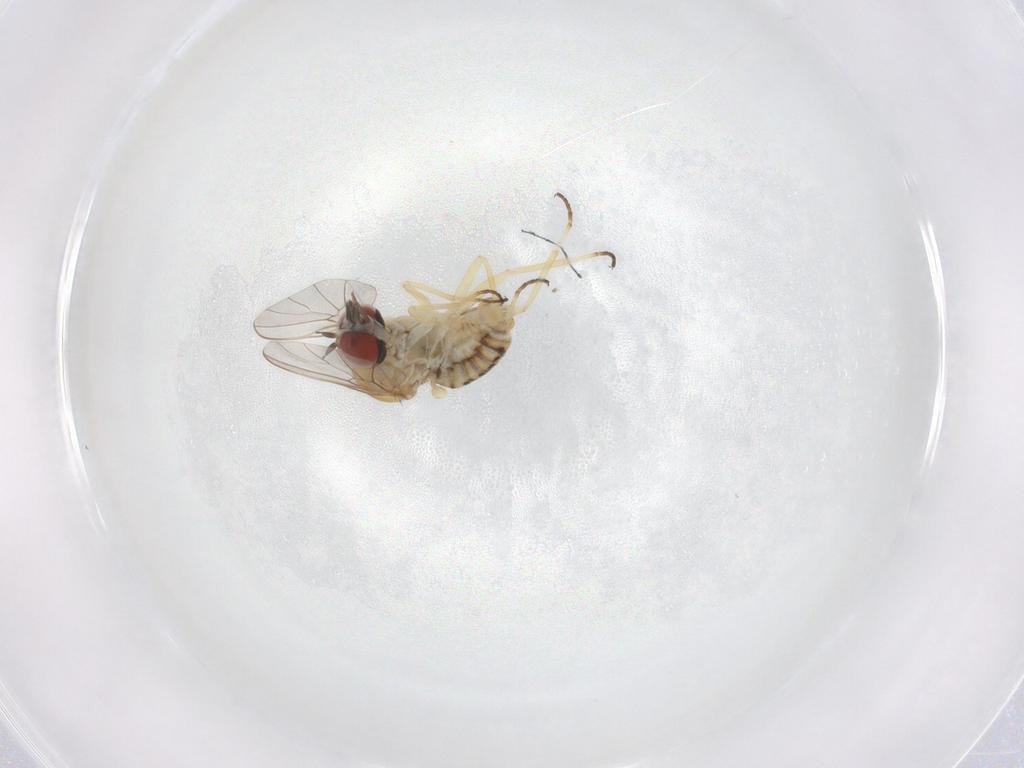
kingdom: Animalia
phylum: Arthropoda
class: Insecta
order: Diptera
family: Bombyliidae
